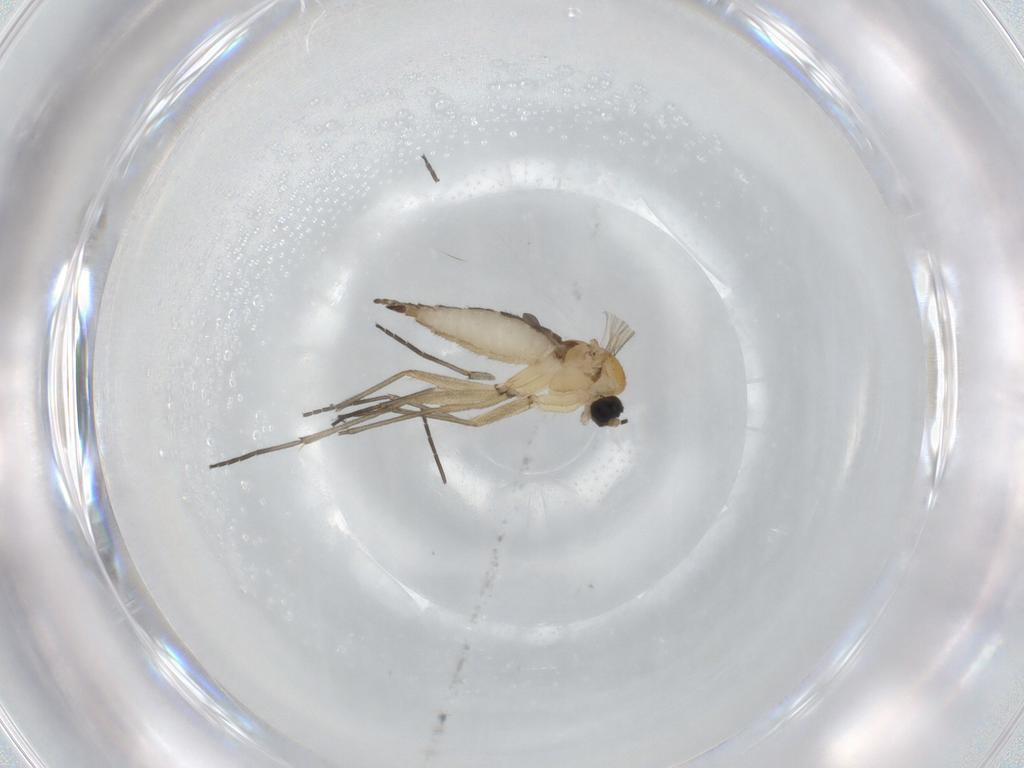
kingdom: Animalia
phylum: Arthropoda
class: Insecta
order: Diptera
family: Sciaridae
